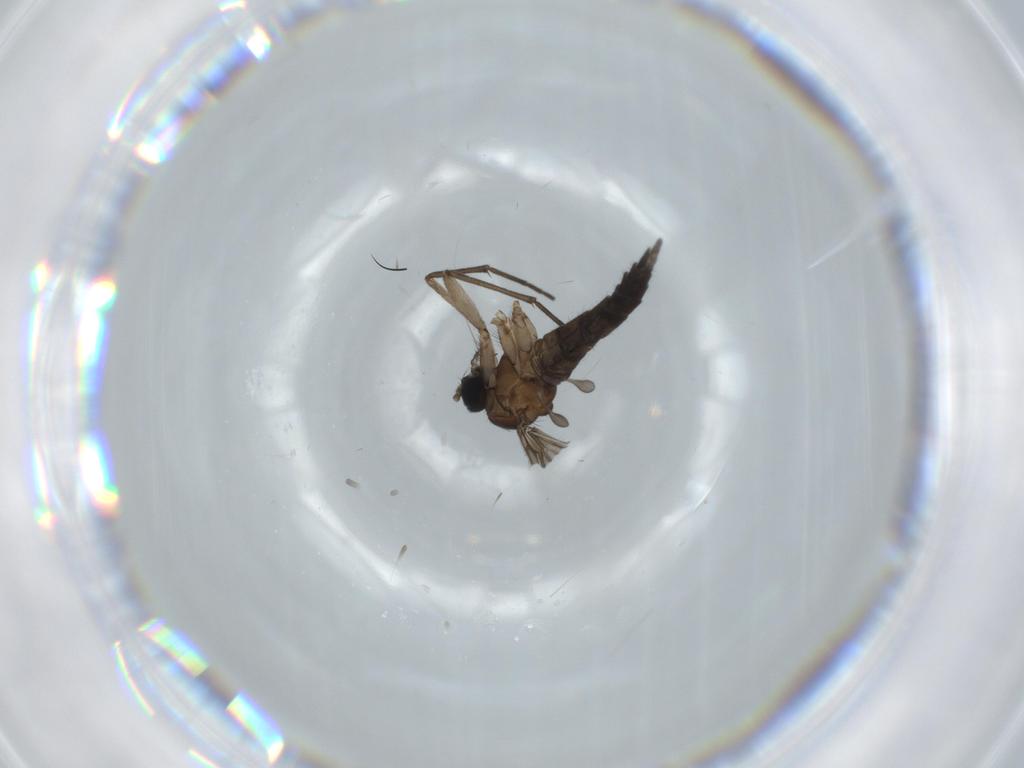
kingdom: Animalia
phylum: Arthropoda
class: Insecta
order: Diptera
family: Sciaridae
